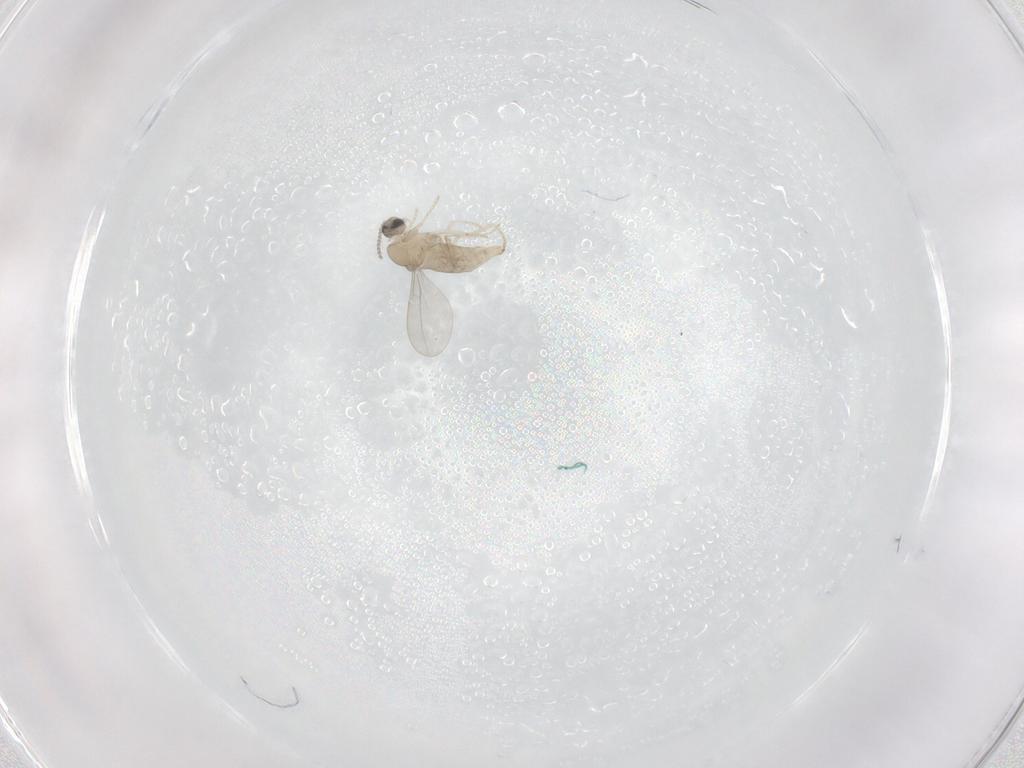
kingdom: Animalia
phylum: Arthropoda
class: Insecta
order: Diptera
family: Cecidomyiidae
